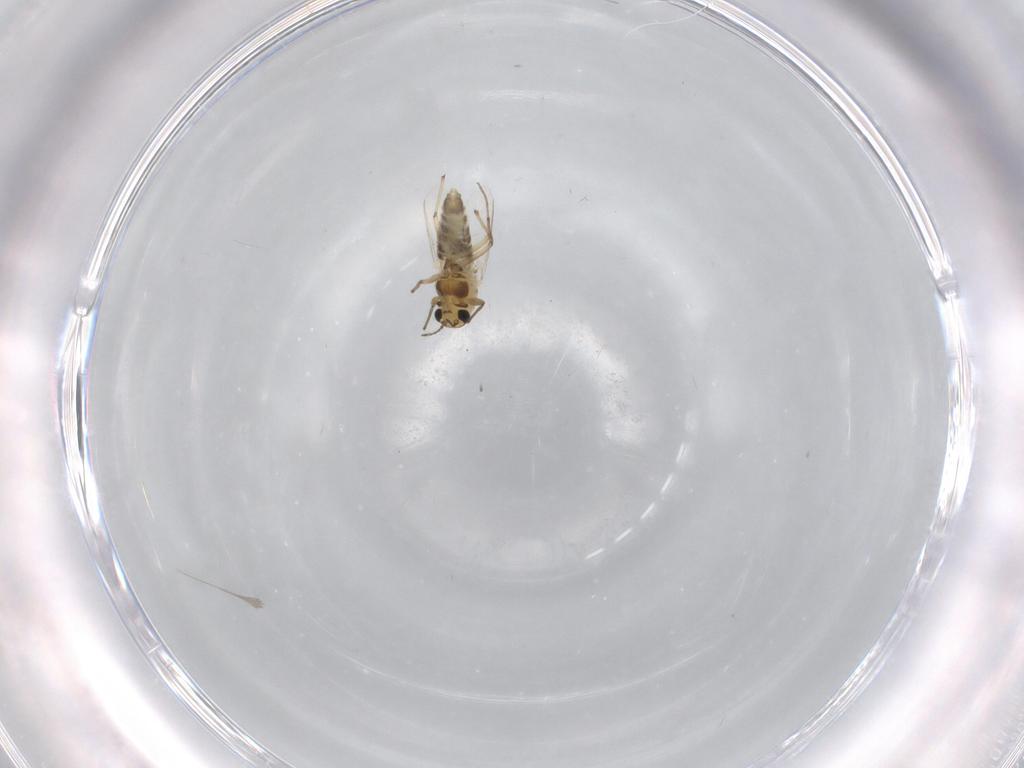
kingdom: Animalia
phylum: Arthropoda
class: Insecta
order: Diptera
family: Chironomidae
